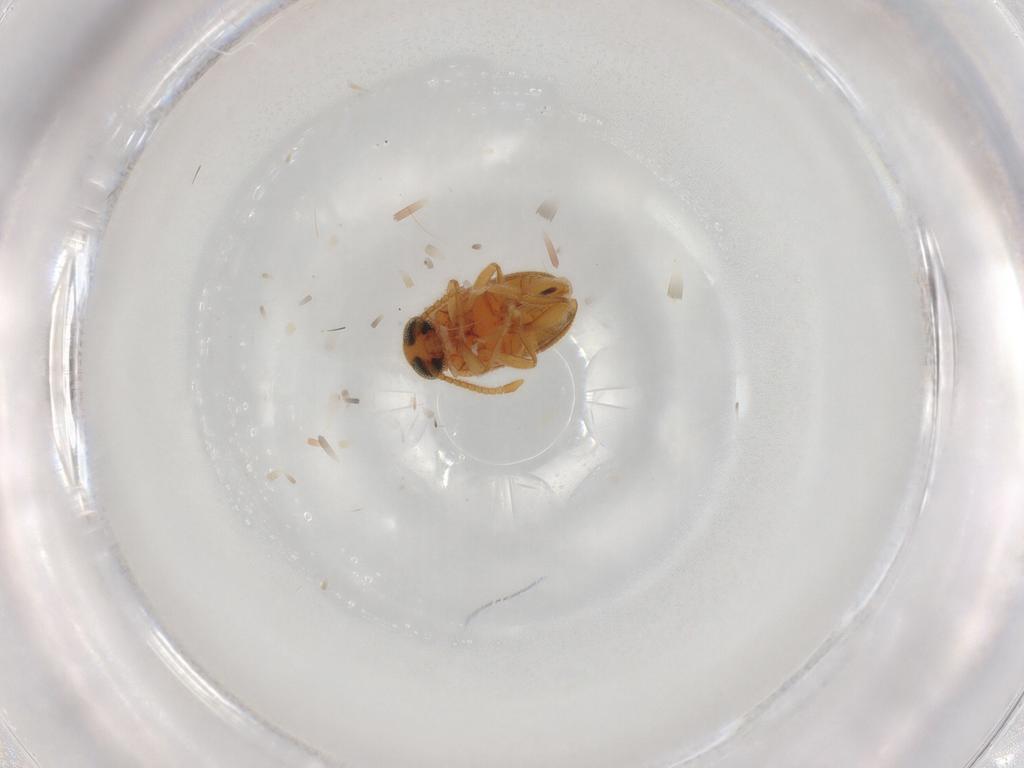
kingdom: Animalia
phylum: Arthropoda
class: Insecta
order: Coleoptera
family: Aderidae
